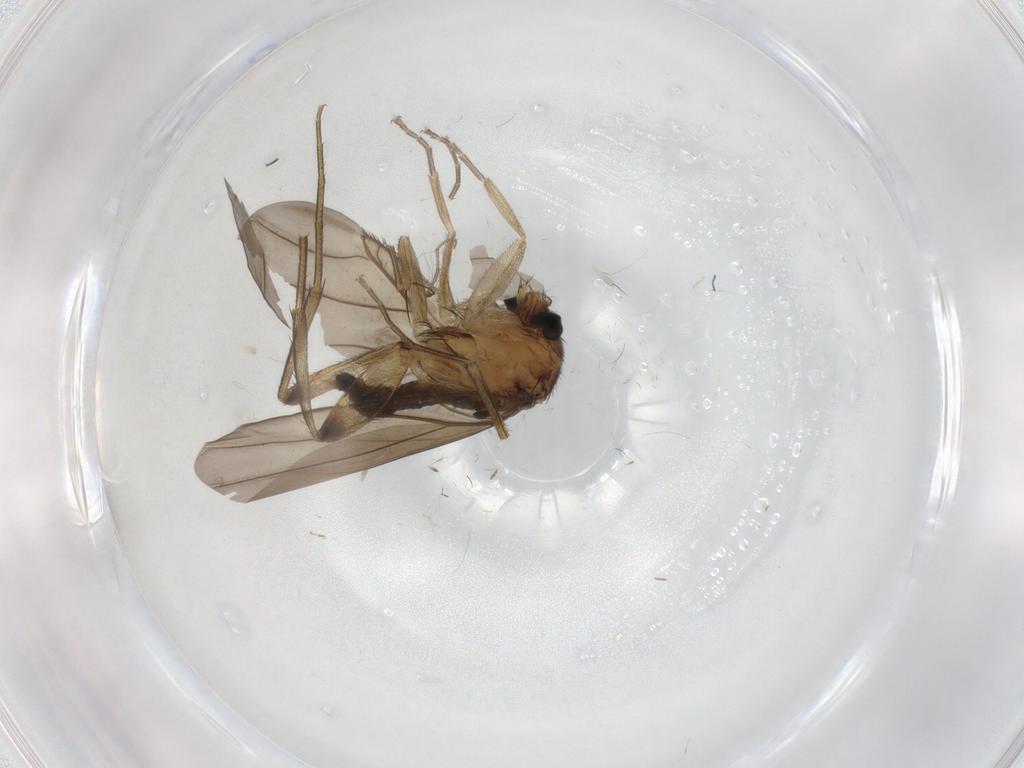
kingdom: Animalia
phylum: Arthropoda
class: Insecta
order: Diptera
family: Phoridae
